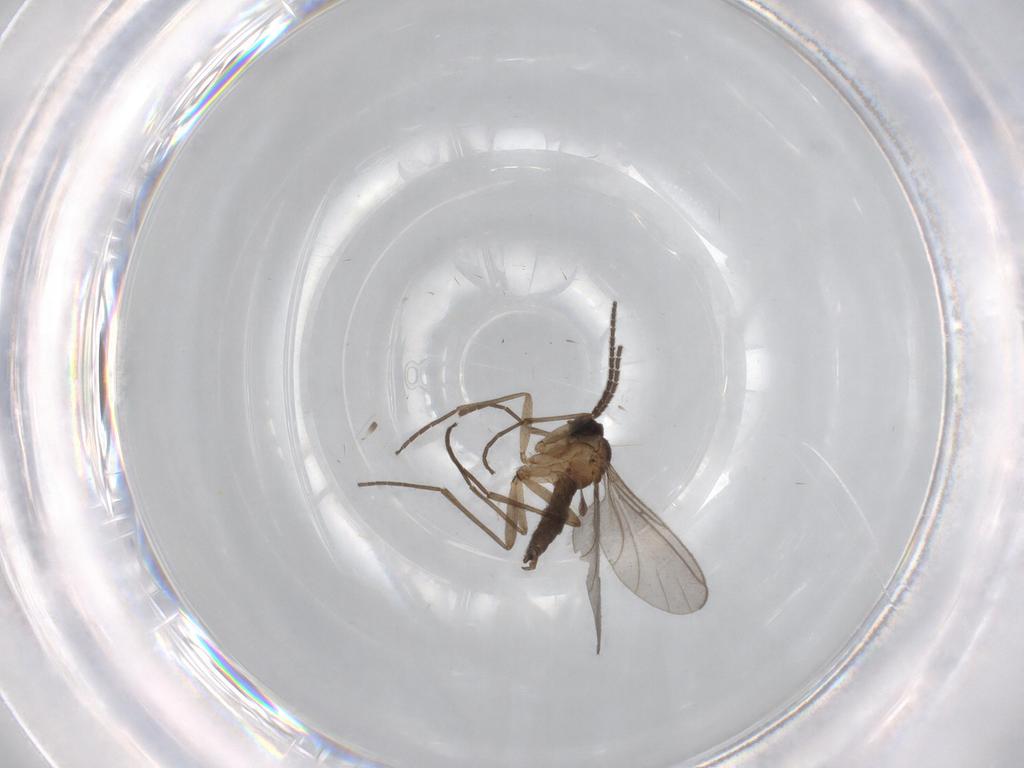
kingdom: Animalia
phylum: Arthropoda
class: Insecta
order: Diptera
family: Sciaridae
